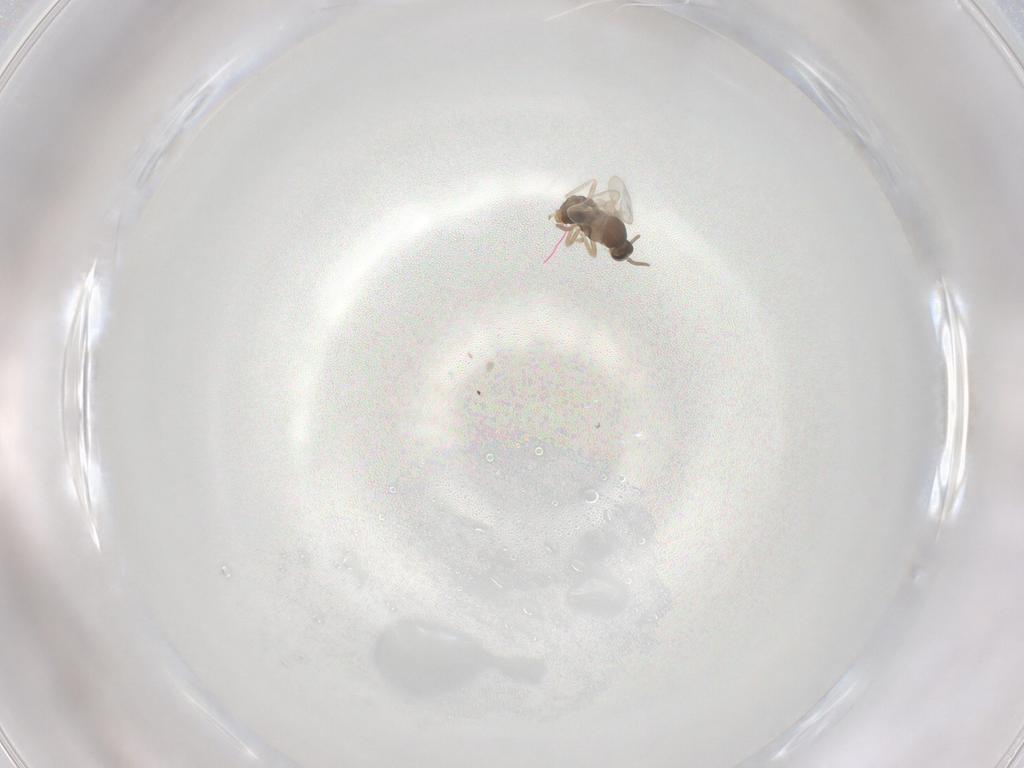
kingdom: Animalia
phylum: Arthropoda
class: Insecta
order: Diptera
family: Cecidomyiidae
